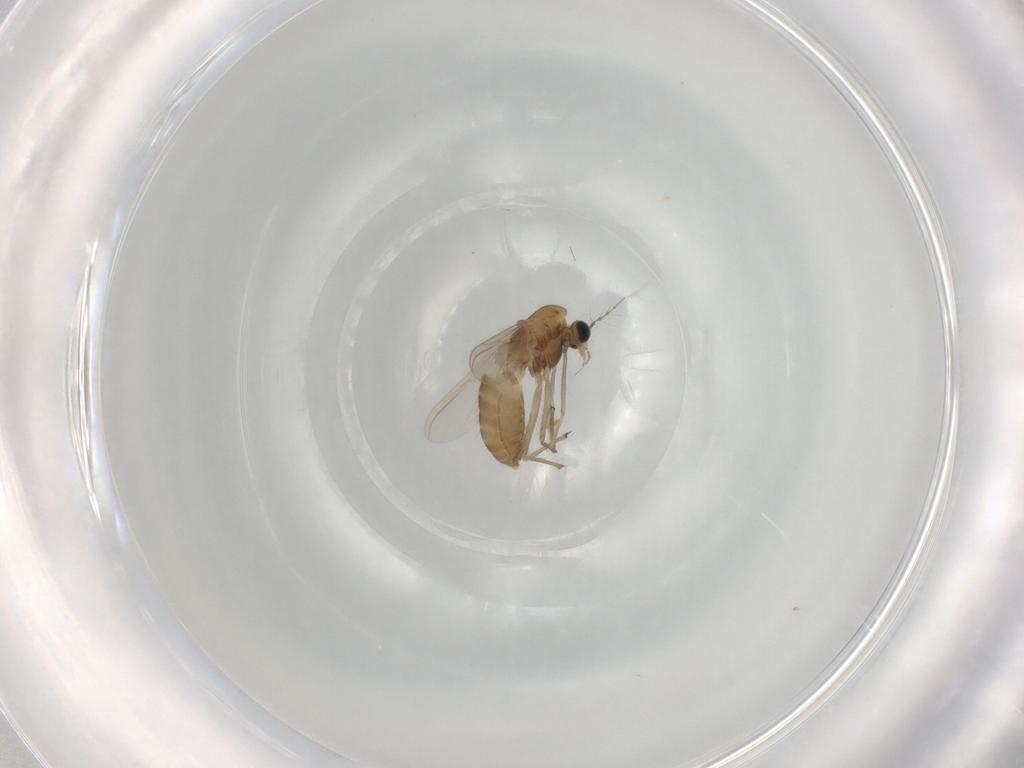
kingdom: Animalia
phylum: Arthropoda
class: Insecta
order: Diptera
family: Chironomidae
